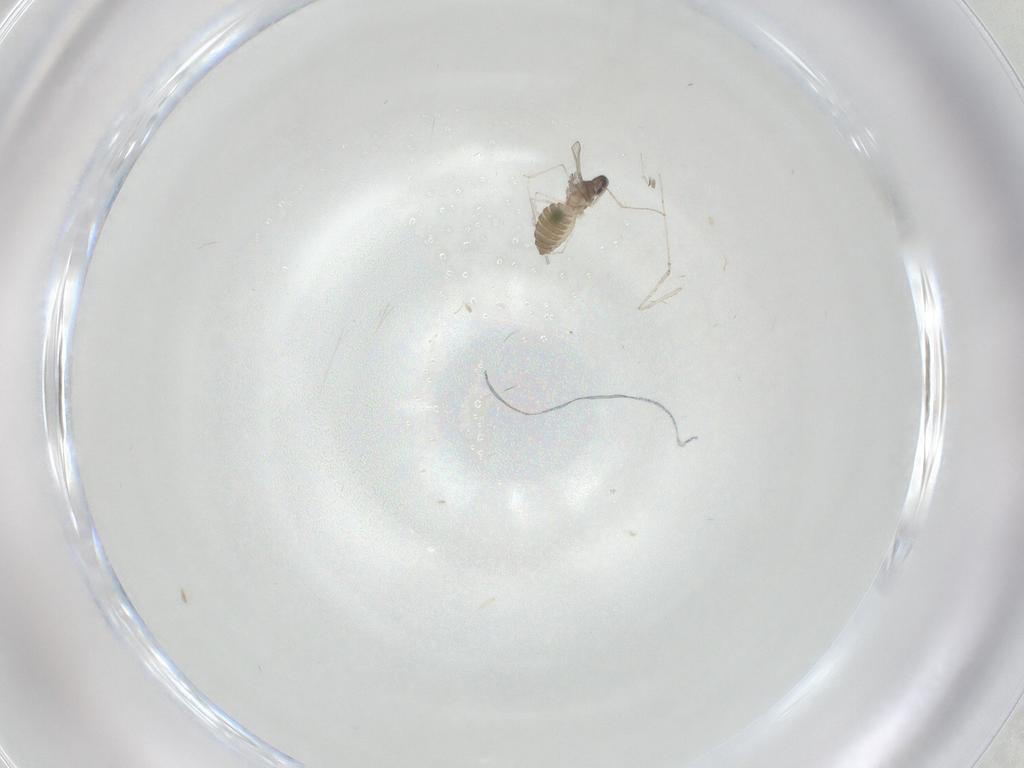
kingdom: Animalia
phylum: Arthropoda
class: Insecta
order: Diptera
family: Cecidomyiidae
